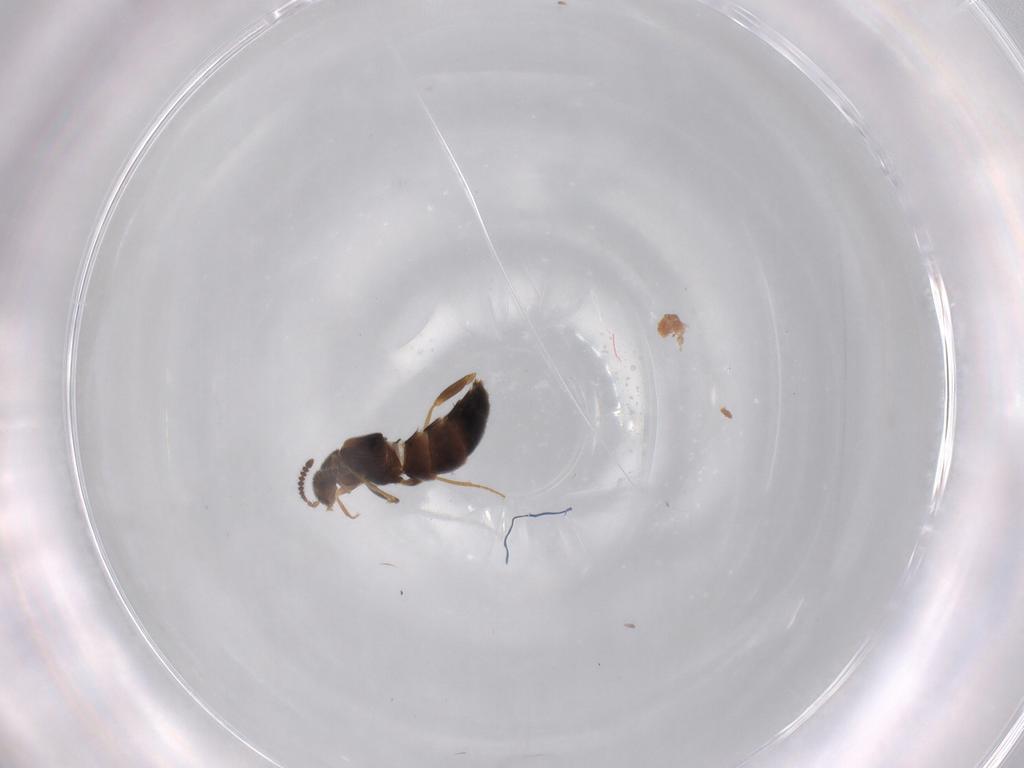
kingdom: Animalia
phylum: Arthropoda
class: Insecta
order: Coleoptera
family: Staphylinidae
